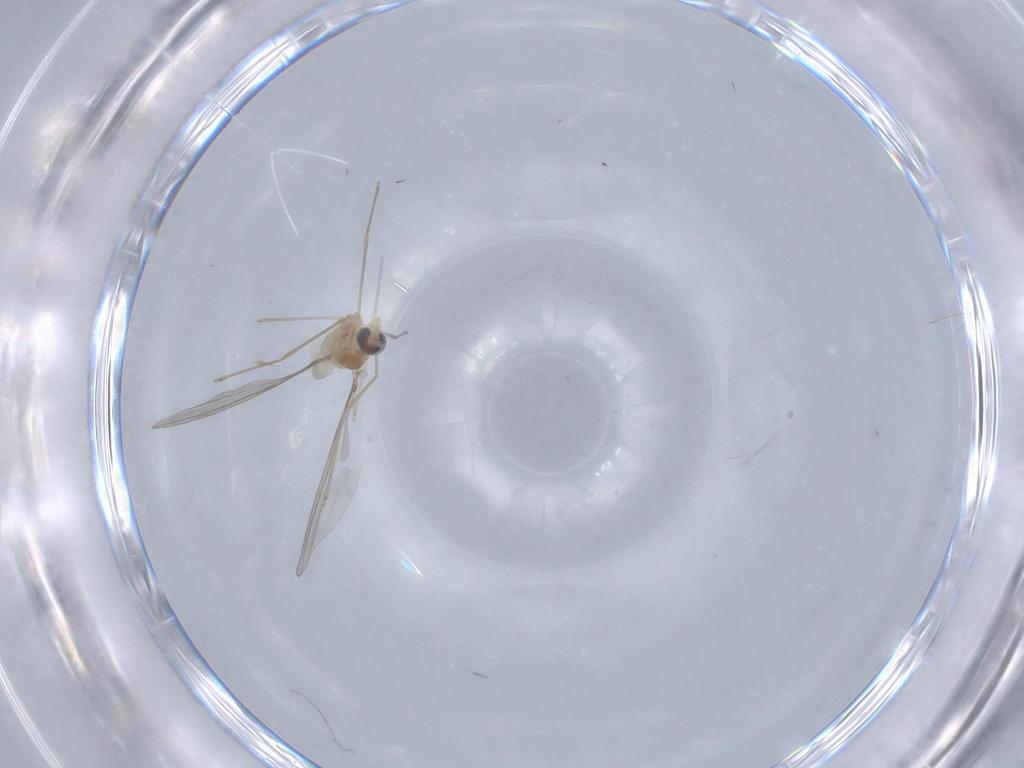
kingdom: Animalia
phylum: Arthropoda
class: Insecta
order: Diptera
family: Cecidomyiidae
